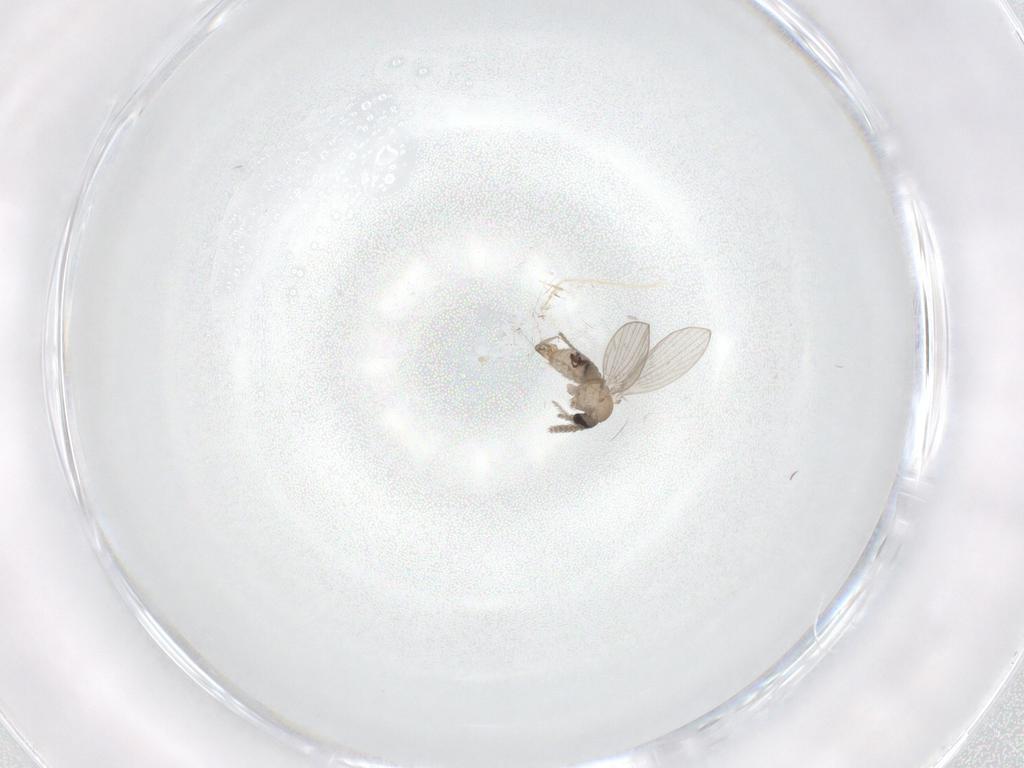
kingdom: Animalia
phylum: Arthropoda
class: Insecta
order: Diptera
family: Psychodidae
